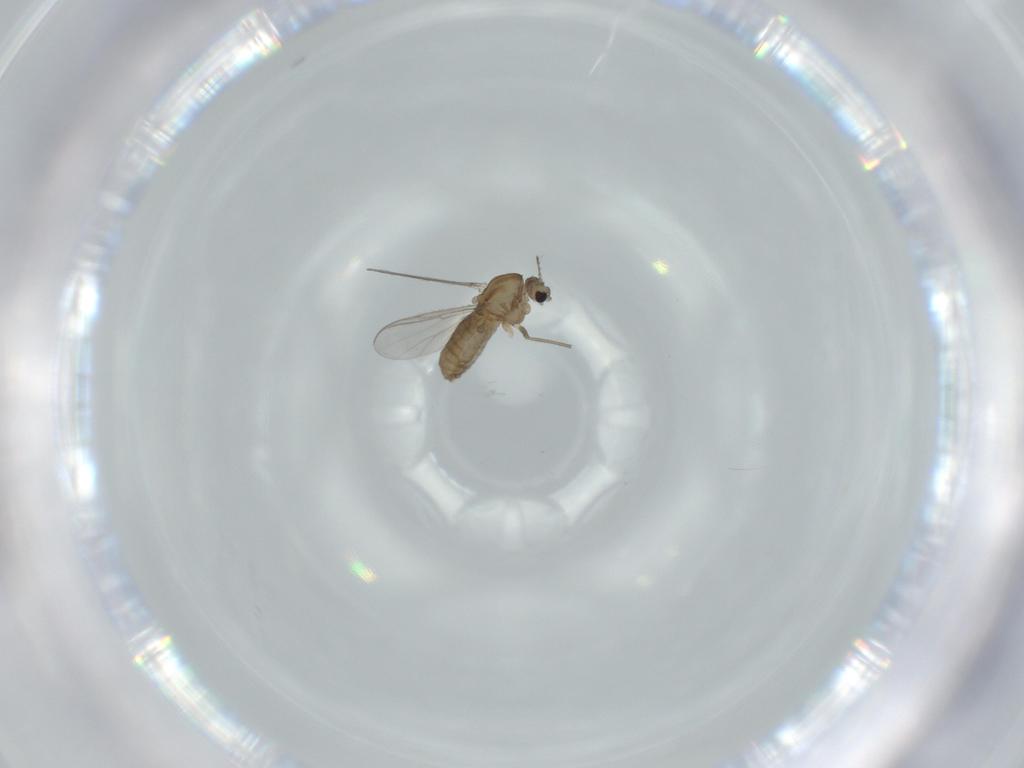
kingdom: Animalia
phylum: Arthropoda
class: Insecta
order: Diptera
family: Chironomidae
